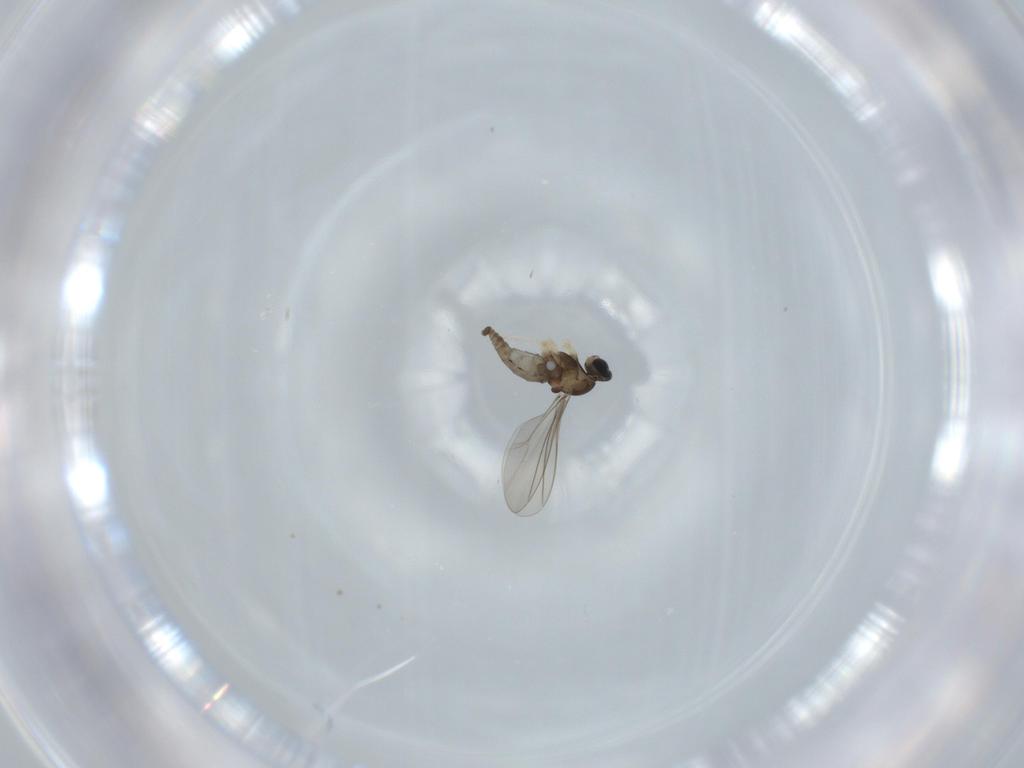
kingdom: Animalia
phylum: Arthropoda
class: Insecta
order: Diptera
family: Cecidomyiidae
